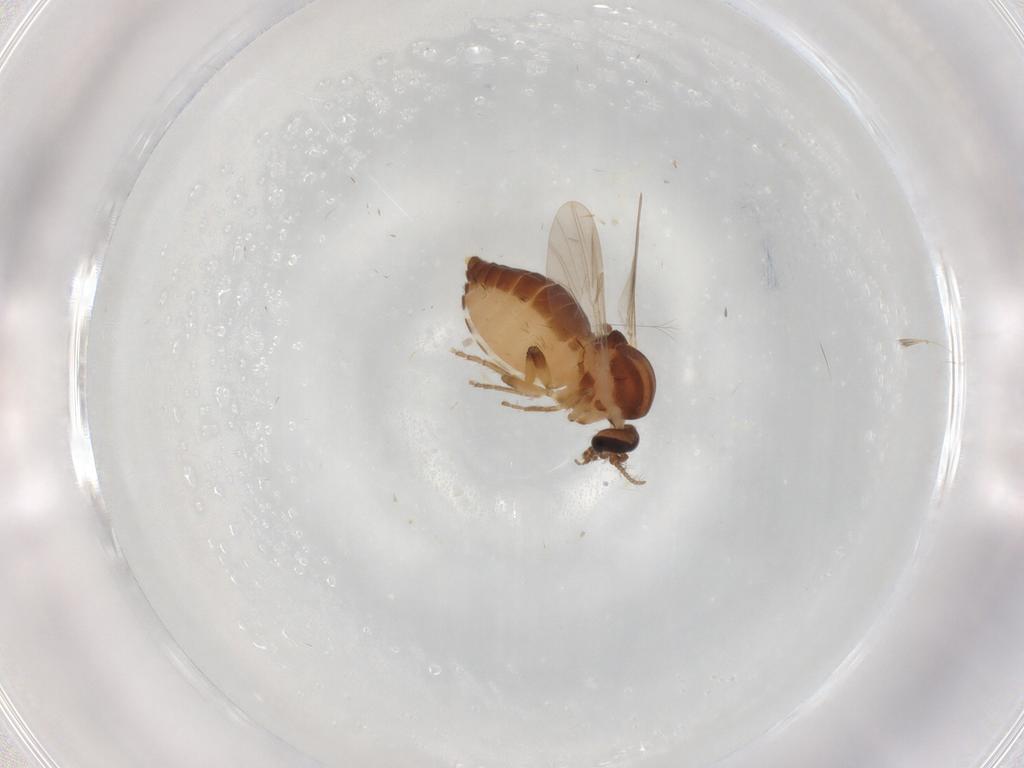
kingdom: Animalia
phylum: Arthropoda
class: Insecta
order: Diptera
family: Ceratopogonidae
